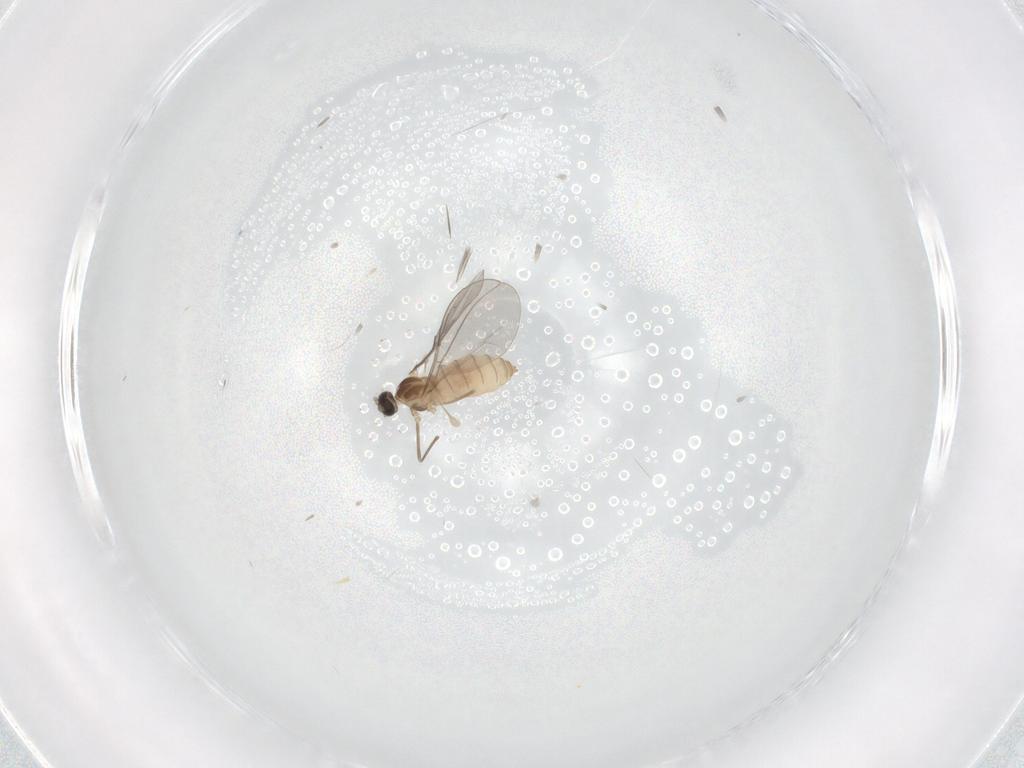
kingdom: Animalia
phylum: Arthropoda
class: Insecta
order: Diptera
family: Cecidomyiidae
